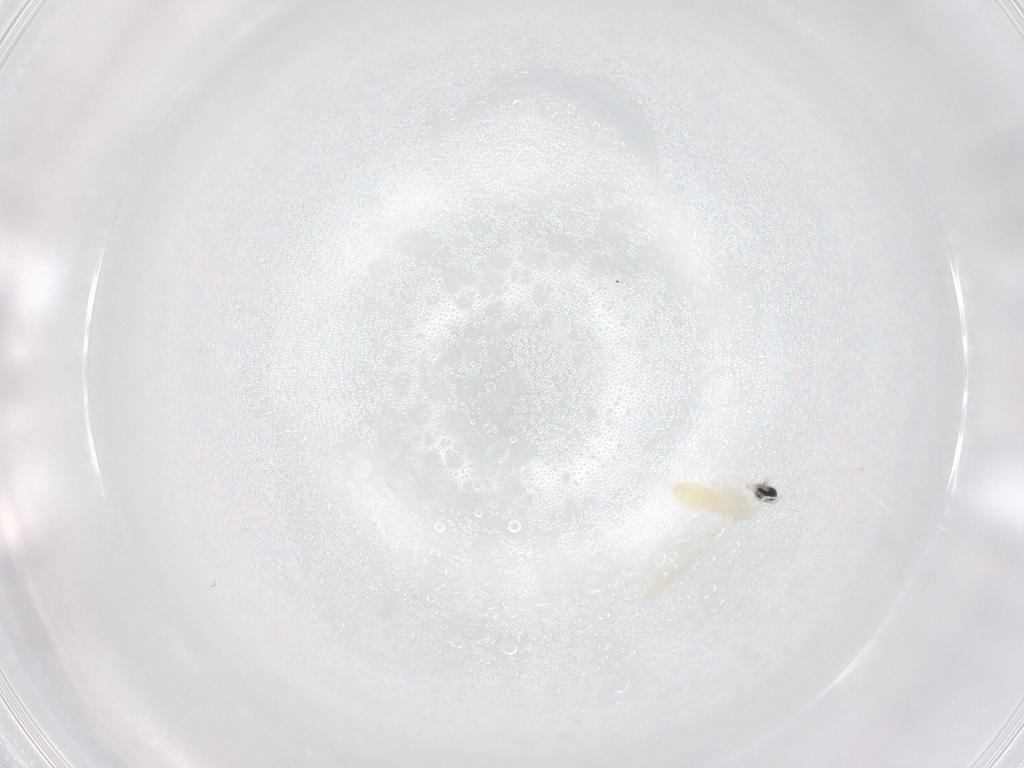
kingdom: Animalia
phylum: Arthropoda
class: Insecta
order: Diptera
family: Cecidomyiidae
